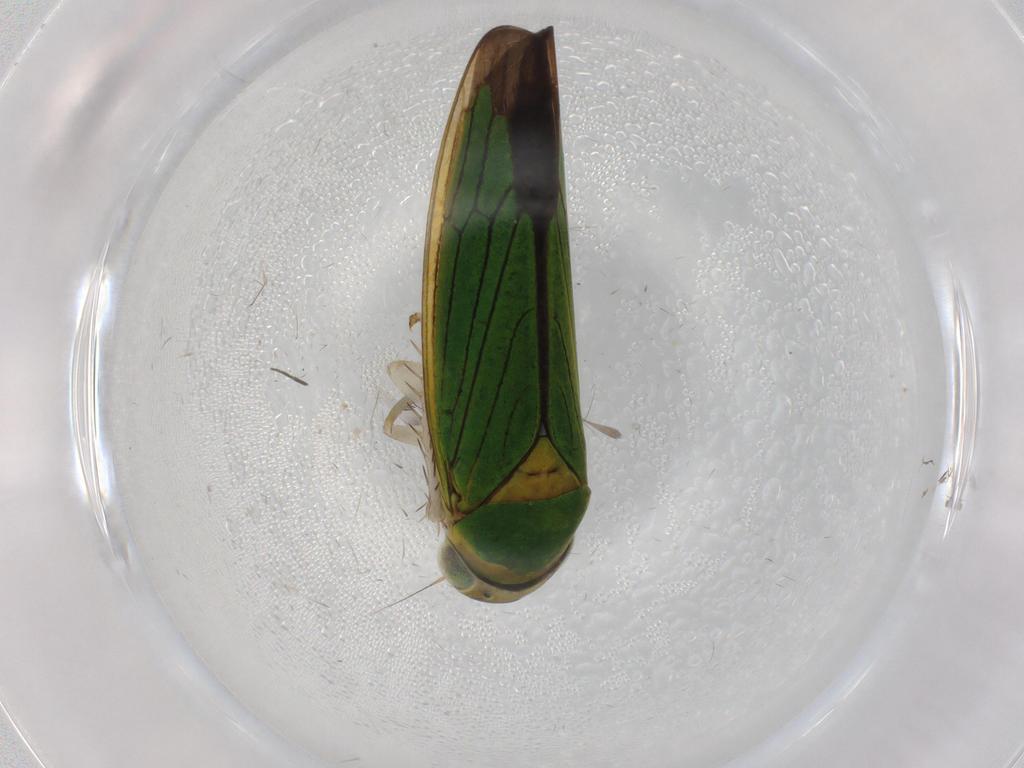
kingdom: Animalia
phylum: Arthropoda
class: Insecta
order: Hemiptera
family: Cicadellidae
